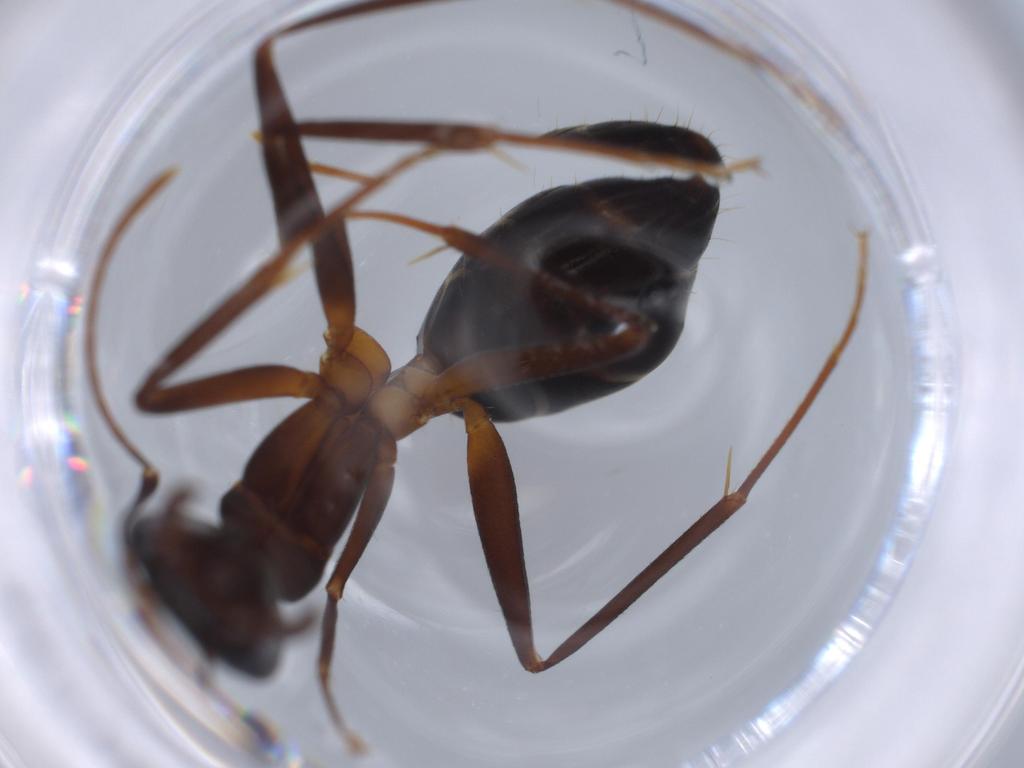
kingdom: Animalia
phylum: Arthropoda
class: Insecta
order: Hymenoptera
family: Formicidae
